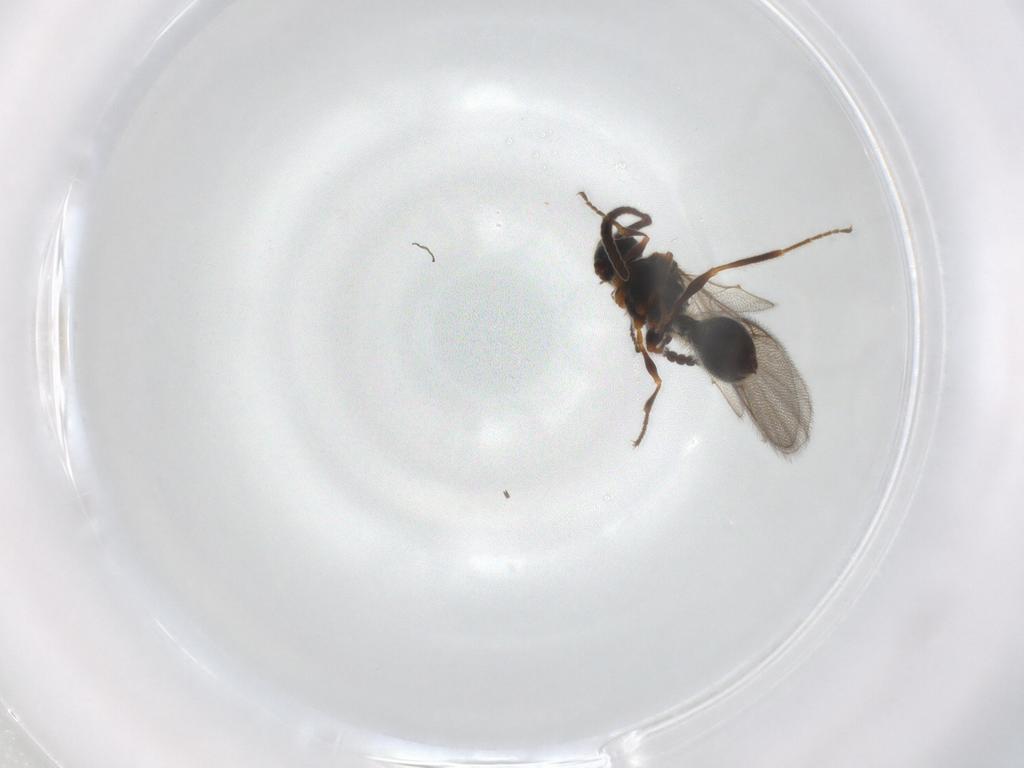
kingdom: Animalia
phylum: Arthropoda
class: Insecta
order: Hymenoptera
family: Diapriidae
